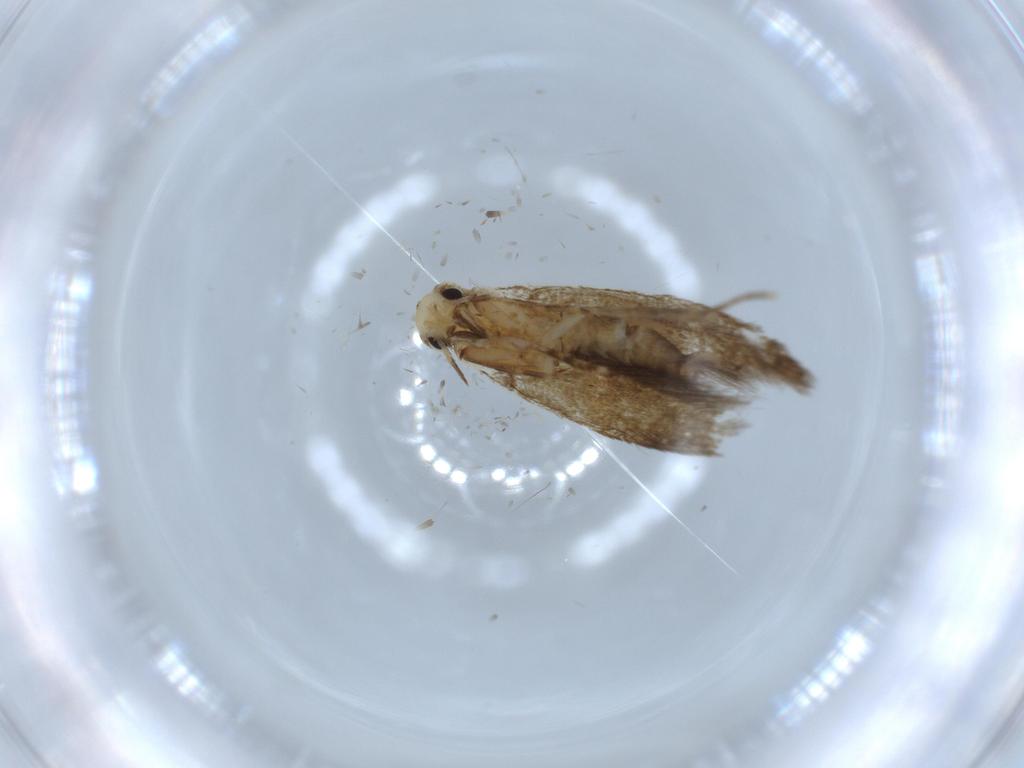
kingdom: Animalia
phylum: Arthropoda
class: Insecta
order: Lepidoptera
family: Tineidae
